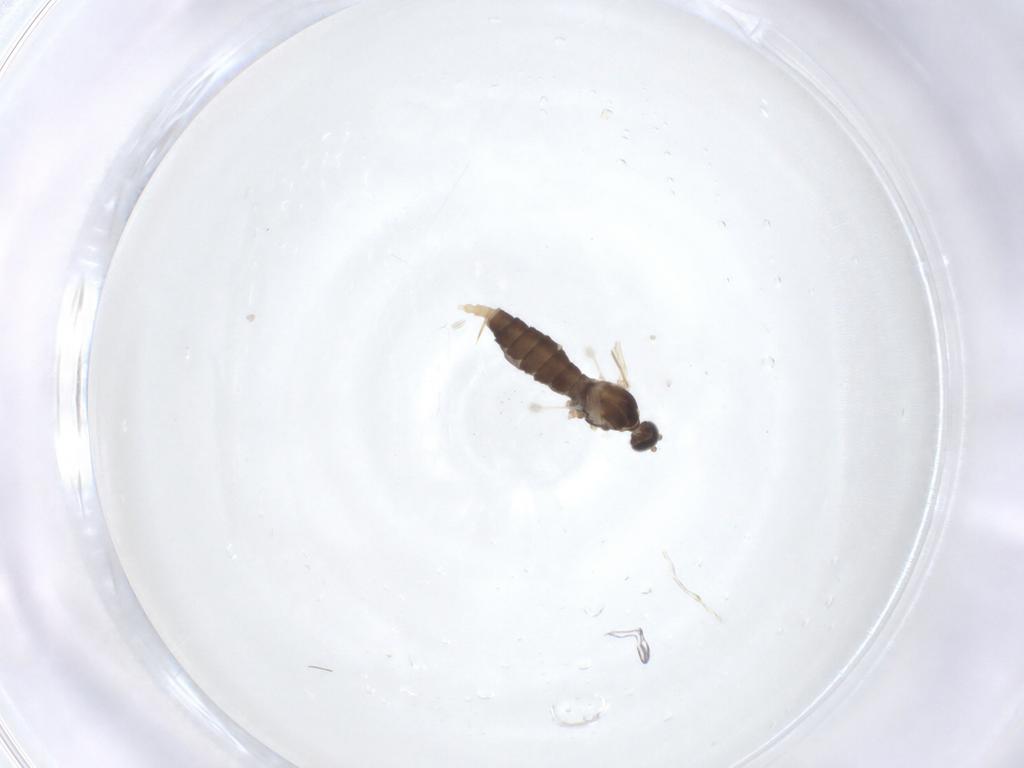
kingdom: Animalia
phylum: Arthropoda
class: Insecta
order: Diptera
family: Cecidomyiidae
